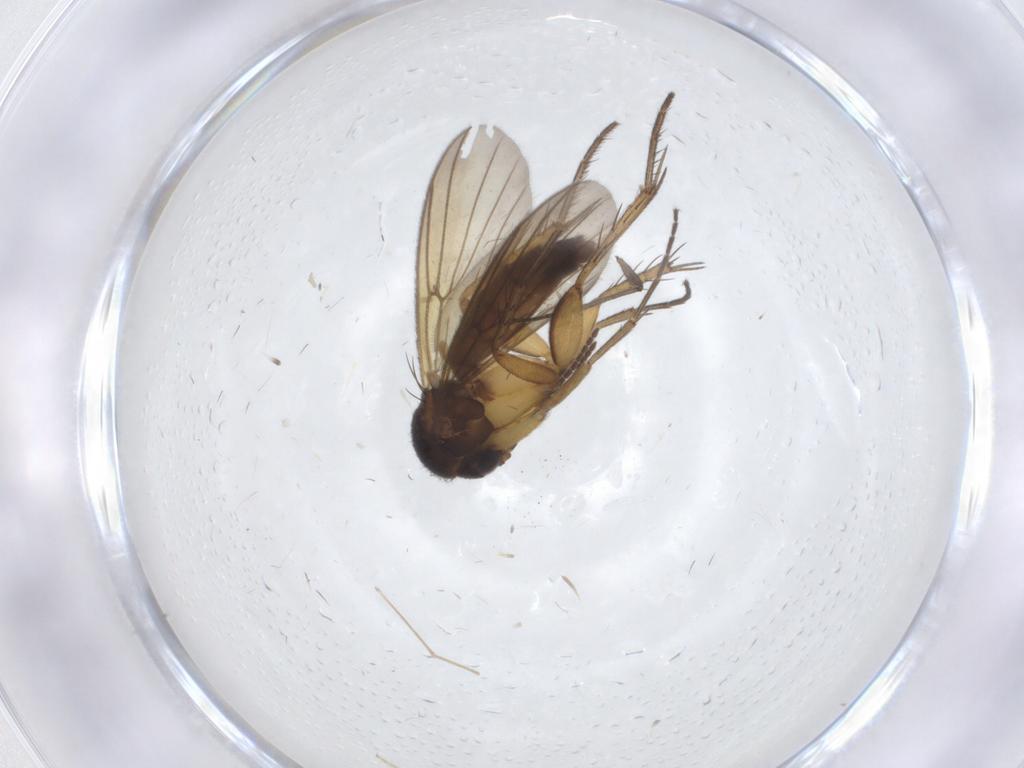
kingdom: Animalia
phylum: Arthropoda
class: Insecta
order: Diptera
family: Mycetophilidae
